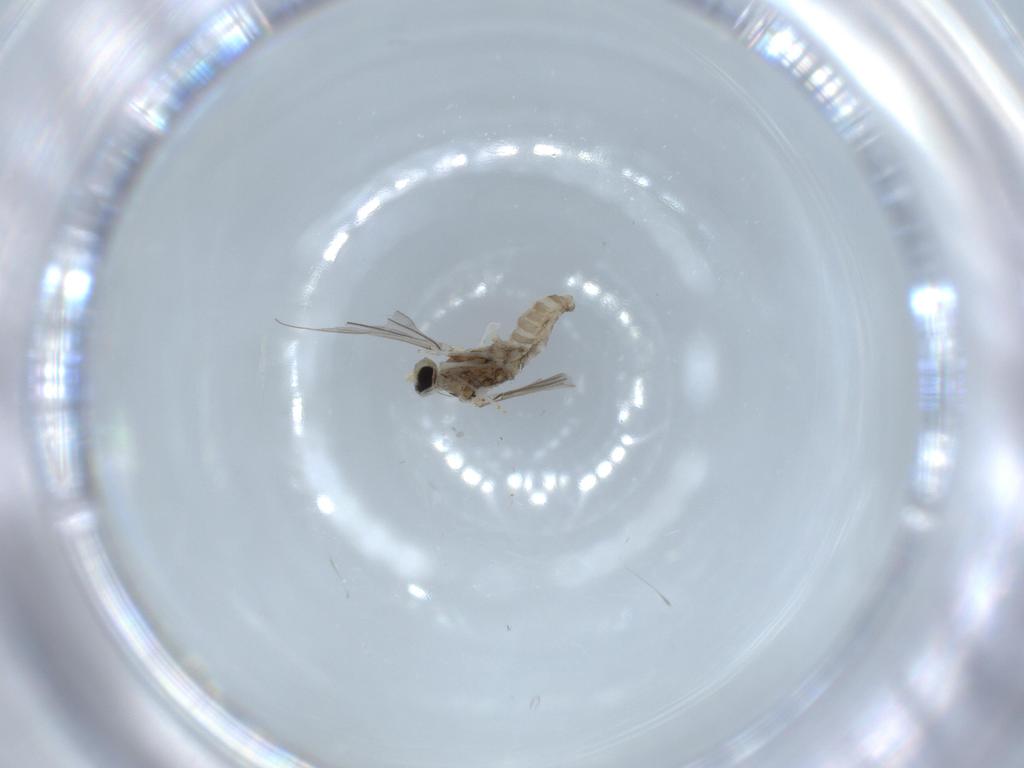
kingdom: Animalia
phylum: Arthropoda
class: Insecta
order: Diptera
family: Cecidomyiidae
